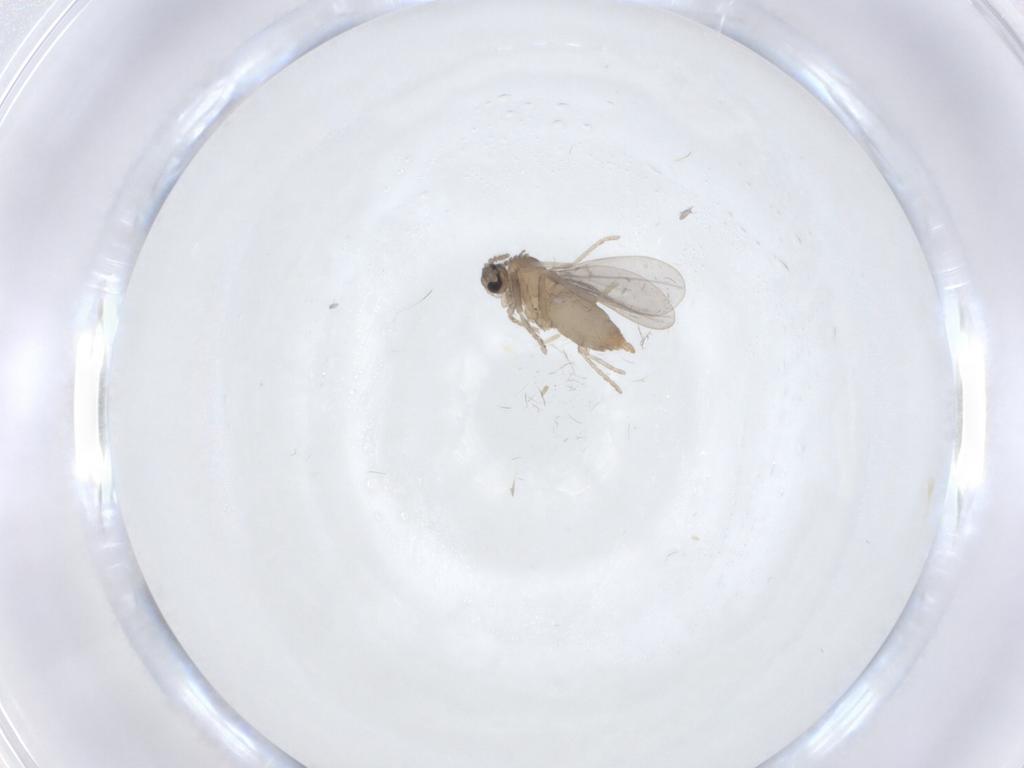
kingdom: Animalia
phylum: Arthropoda
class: Insecta
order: Diptera
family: Cecidomyiidae
